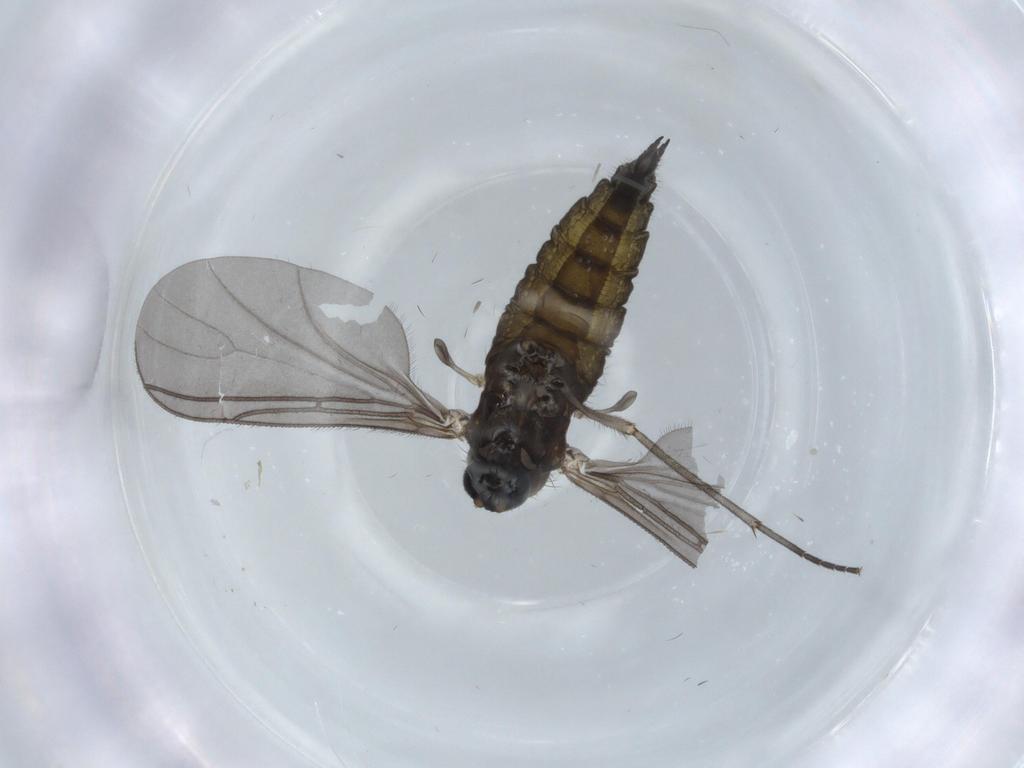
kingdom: Animalia
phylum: Arthropoda
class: Insecta
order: Diptera
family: Sciaridae
